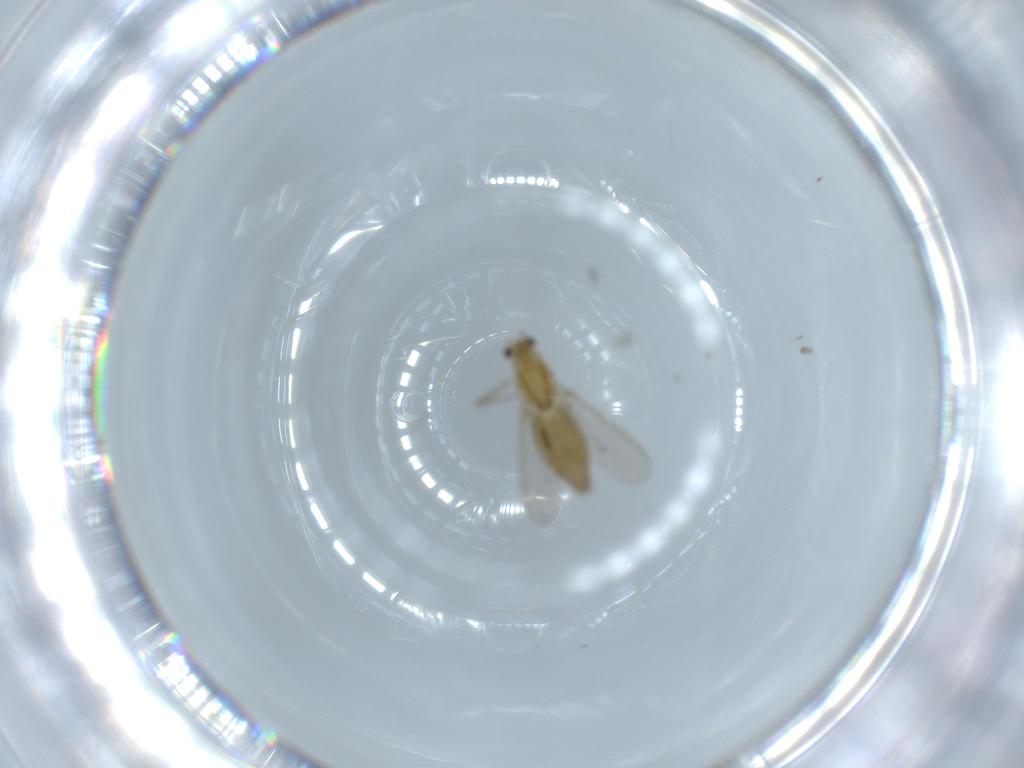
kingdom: Animalia
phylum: Arthropoda
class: Insecta
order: Diptera
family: Chironomidae
